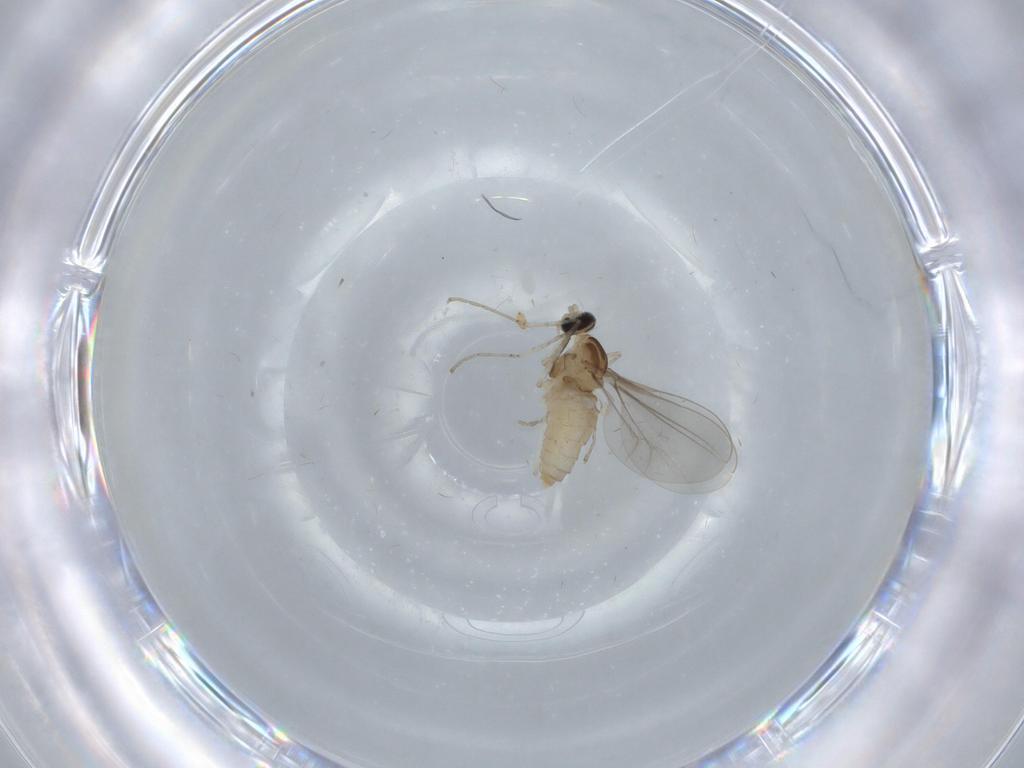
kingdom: Animalia
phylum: Arthropoda
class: Insecta
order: Diptera
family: Cecidomyiidae
